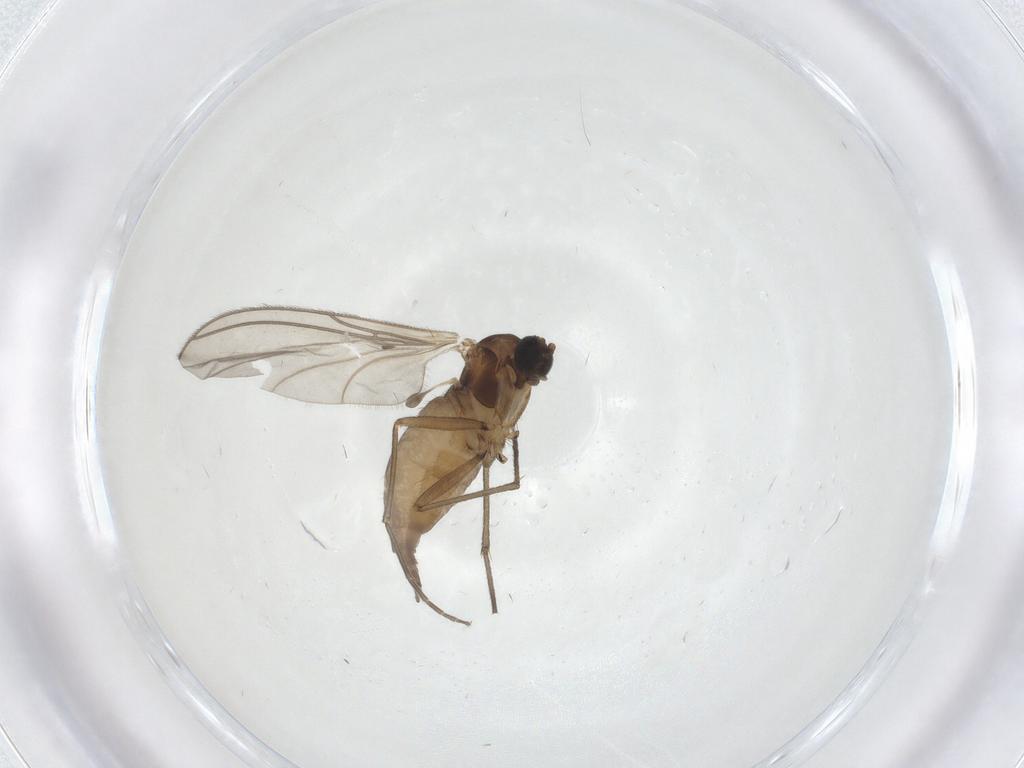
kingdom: Animalia
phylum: Arthropoda
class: Insecta
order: Diptera
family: Sciaridae
